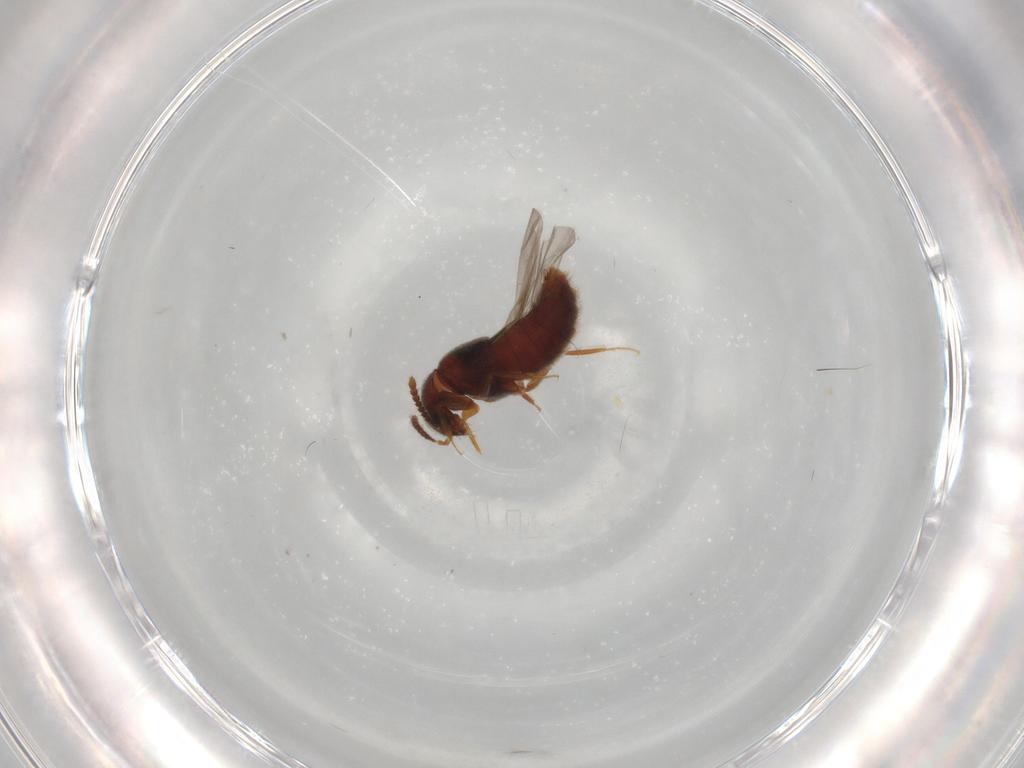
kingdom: Animalia
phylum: Arthropoda
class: Insecta
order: Coleoptera
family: Staphylinidae
